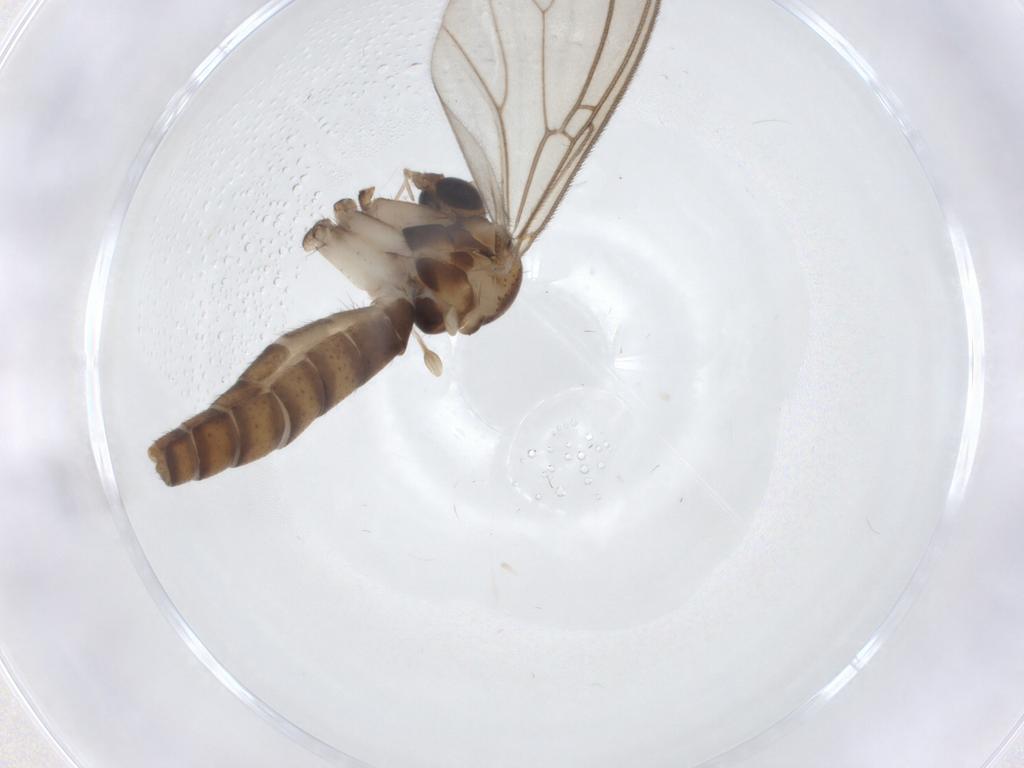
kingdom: Animalia
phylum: Arthropoda
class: Insecta
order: Diptera
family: Mycetophilidae
